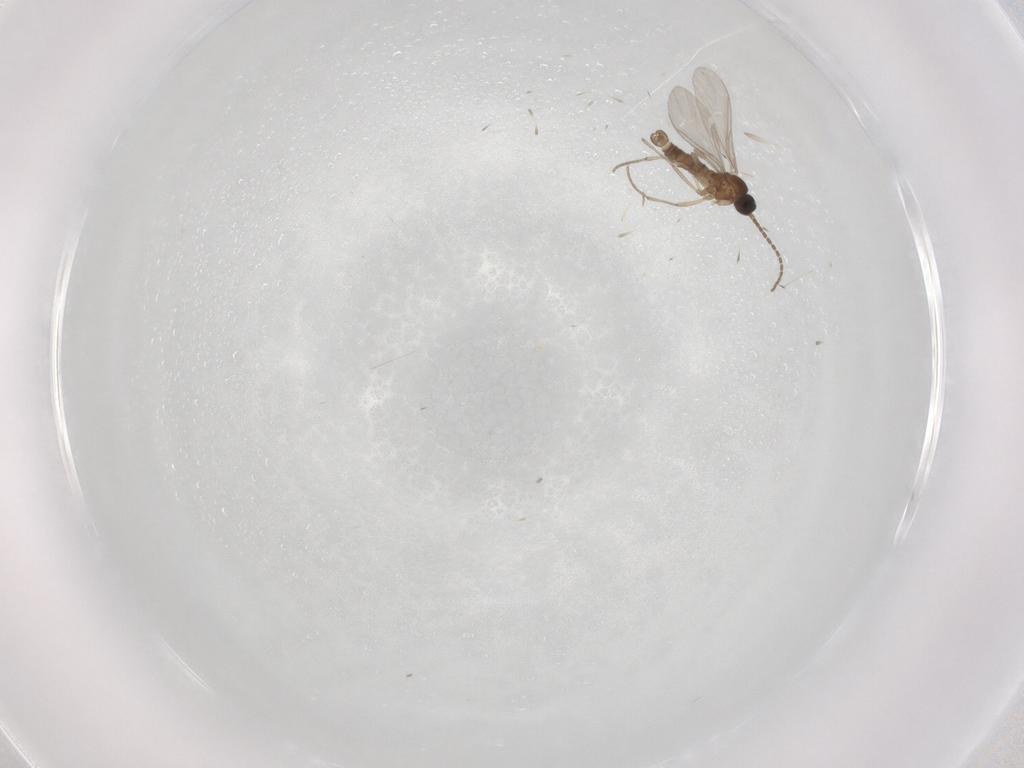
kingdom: Animalia
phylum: Arthropoda
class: Insecta
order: Diptera
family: Sciaridae
